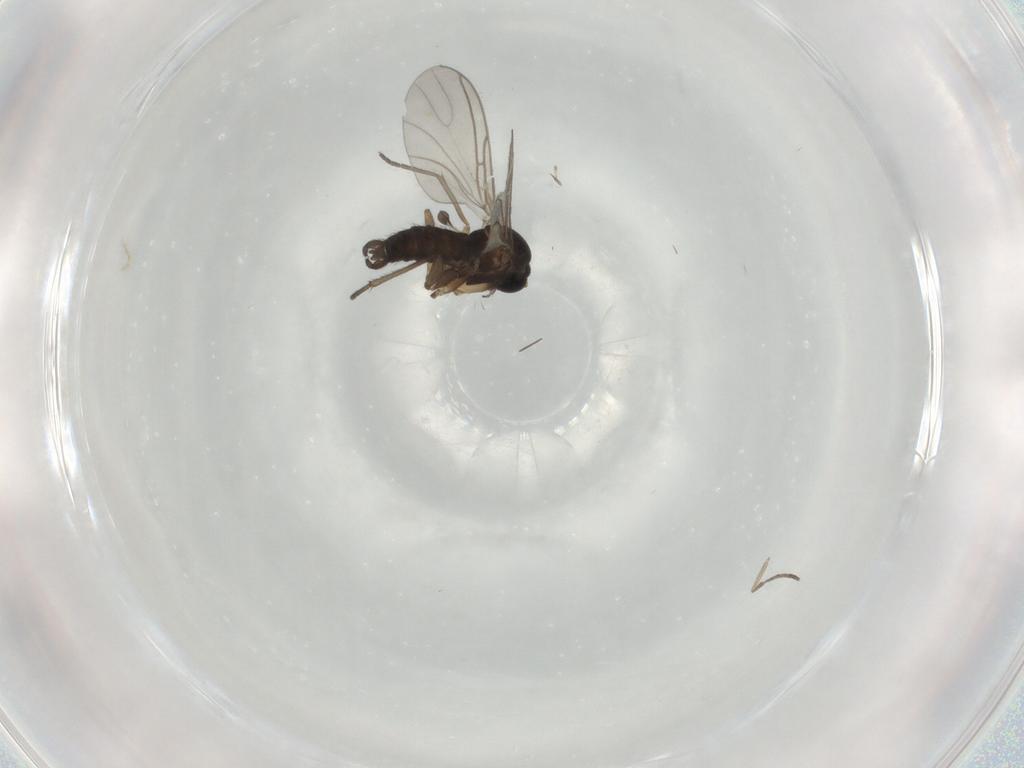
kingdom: Animalia
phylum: Arthropoda
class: Insecta
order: Diptera
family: Sciaridae
